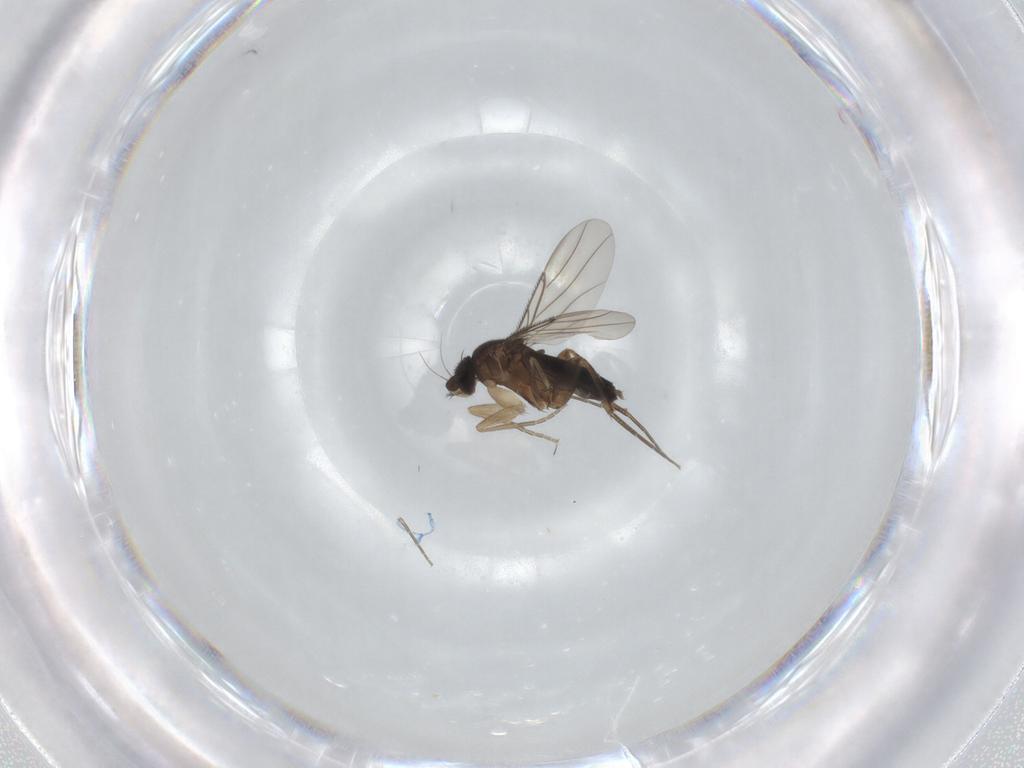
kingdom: Animalia
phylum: Arthropoda
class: Insecta
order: Diptera
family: Phoridae
